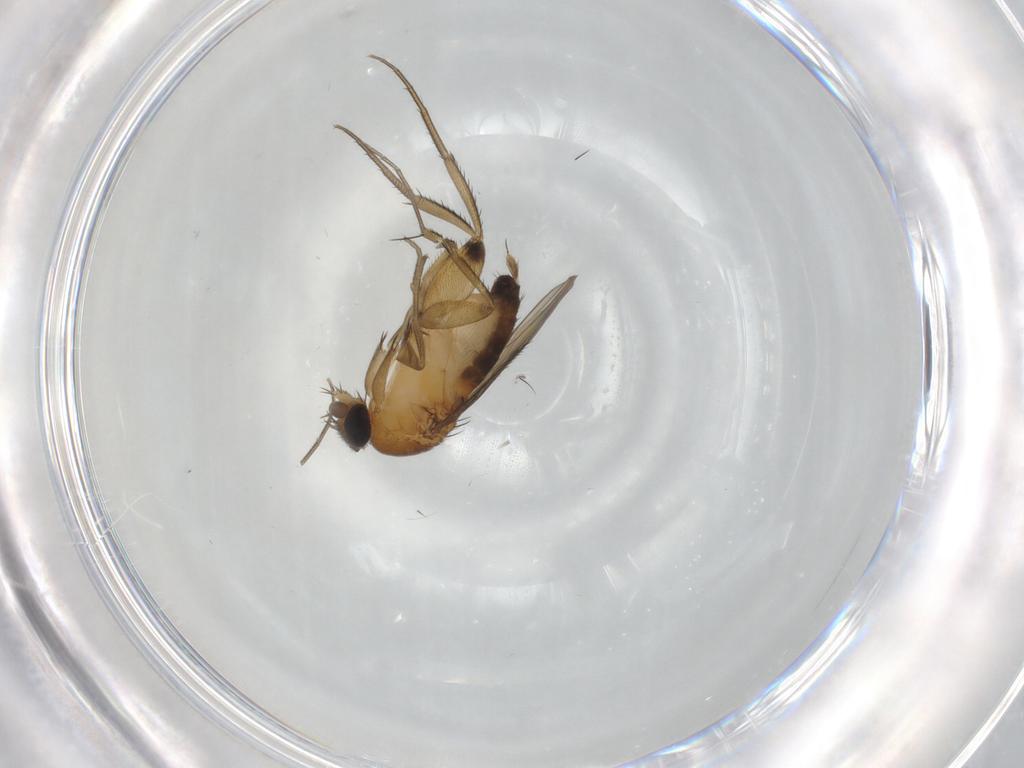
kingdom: Animalia
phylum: Arthropoda
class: Insecta
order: Diptera
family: Phoridae
